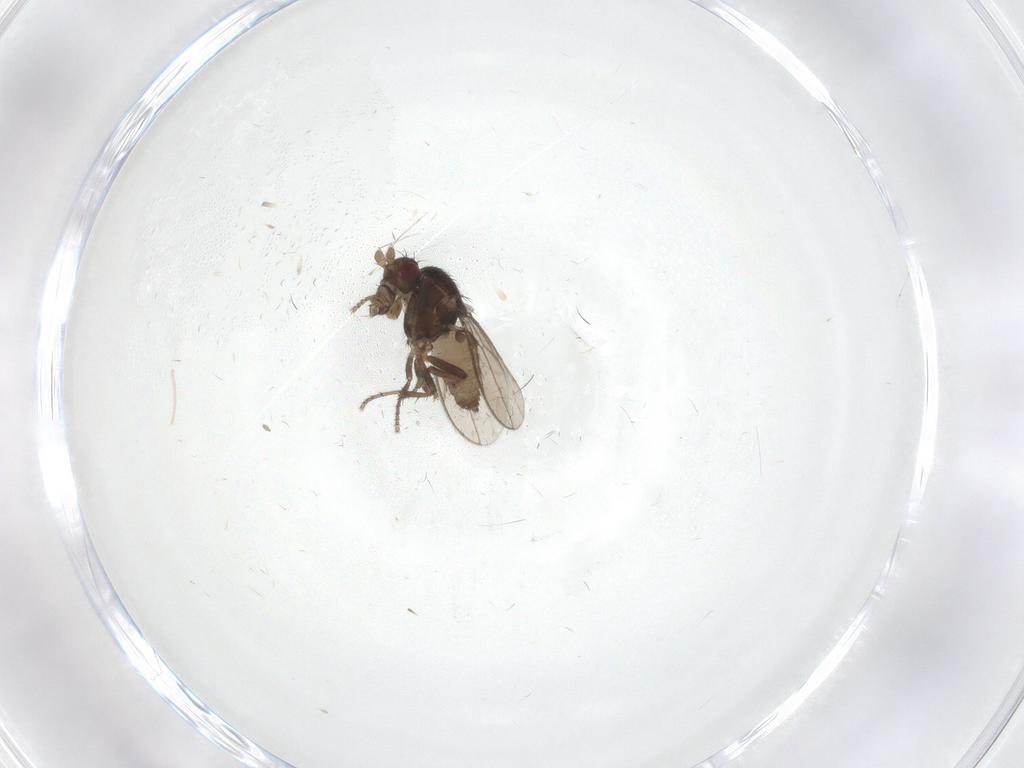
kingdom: Animalia
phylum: Arthropoda
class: Insecta
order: Diptera
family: Sphaeroceridae
